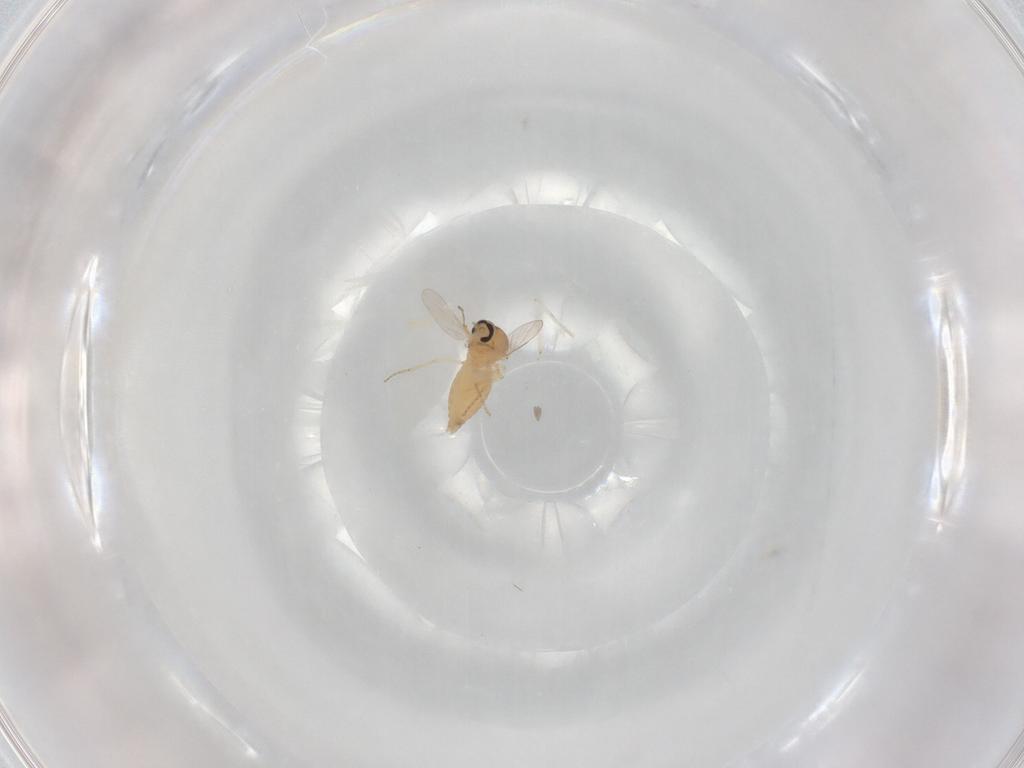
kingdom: Animalia
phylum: Arthropoda
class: Insecta
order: Diptera
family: Ceratopogonidae
